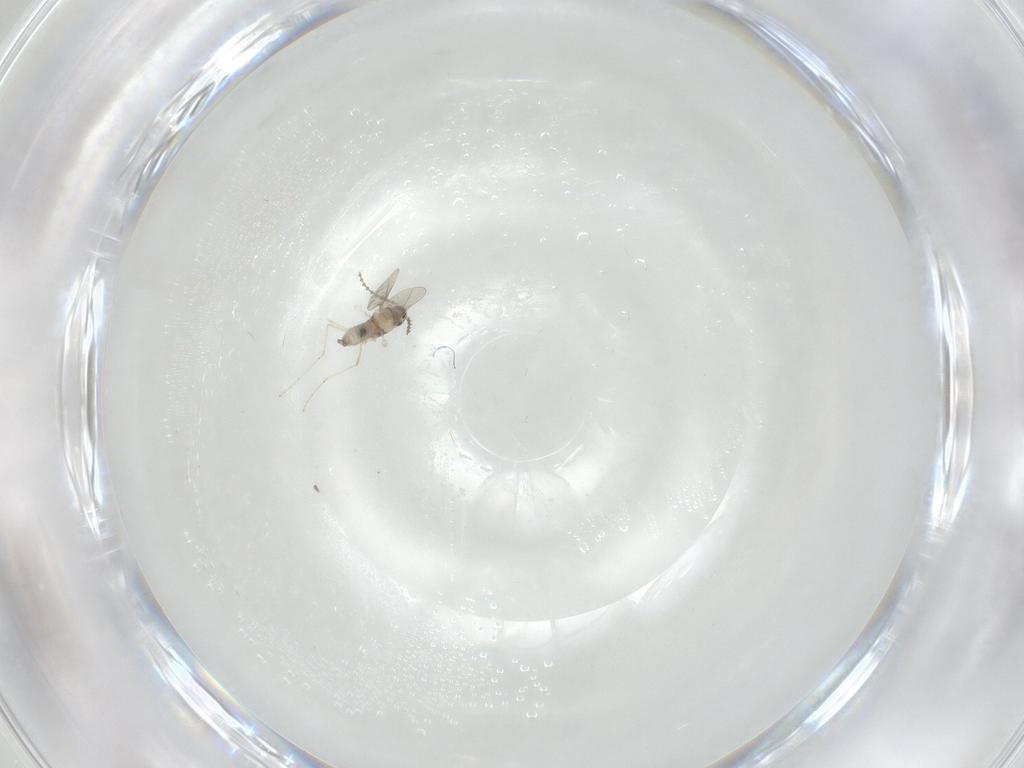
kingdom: Animalia
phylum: Arthropoda
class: Insecta
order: Diptera
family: Cecidomyiidae
